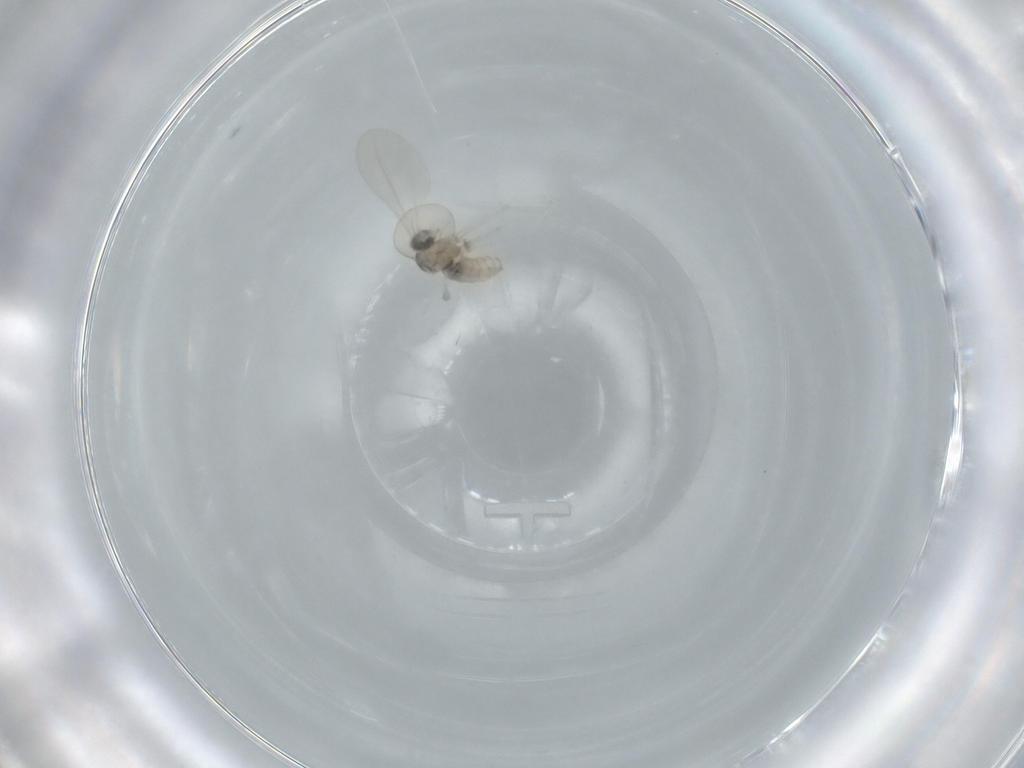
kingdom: Animalia
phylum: Arthropoda
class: Insecta
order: Diptera
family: Cecidomyiidae
